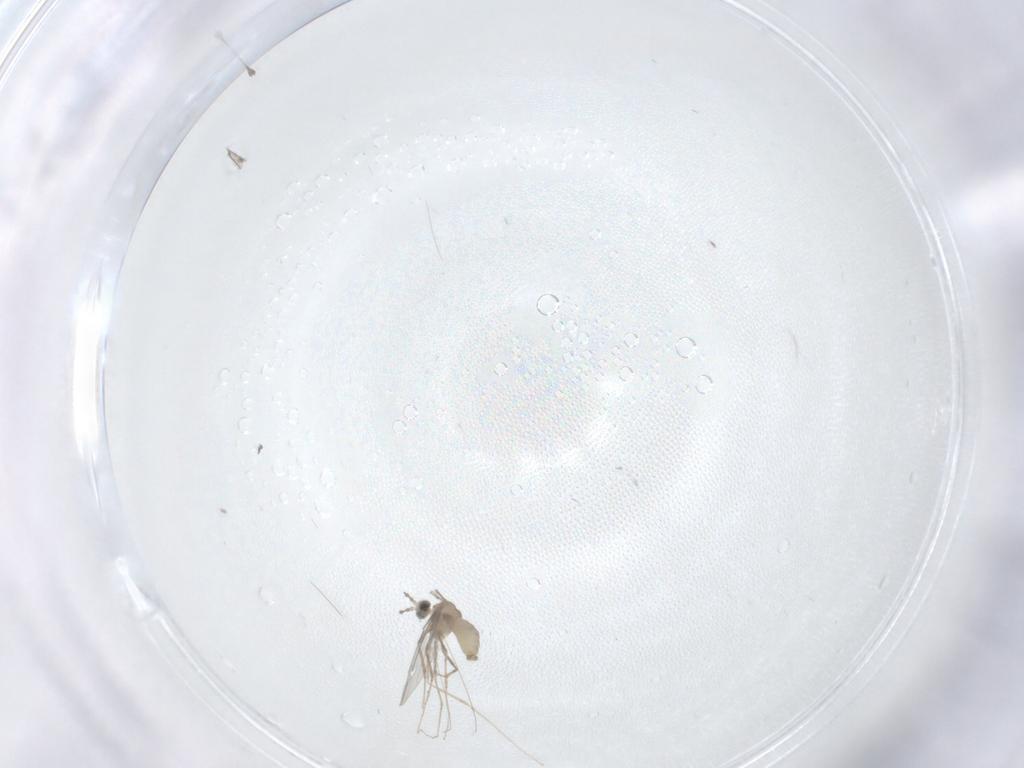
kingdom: Animalia
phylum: Arthropoda
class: Insecta
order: Diptera
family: Cecidomyiidae
